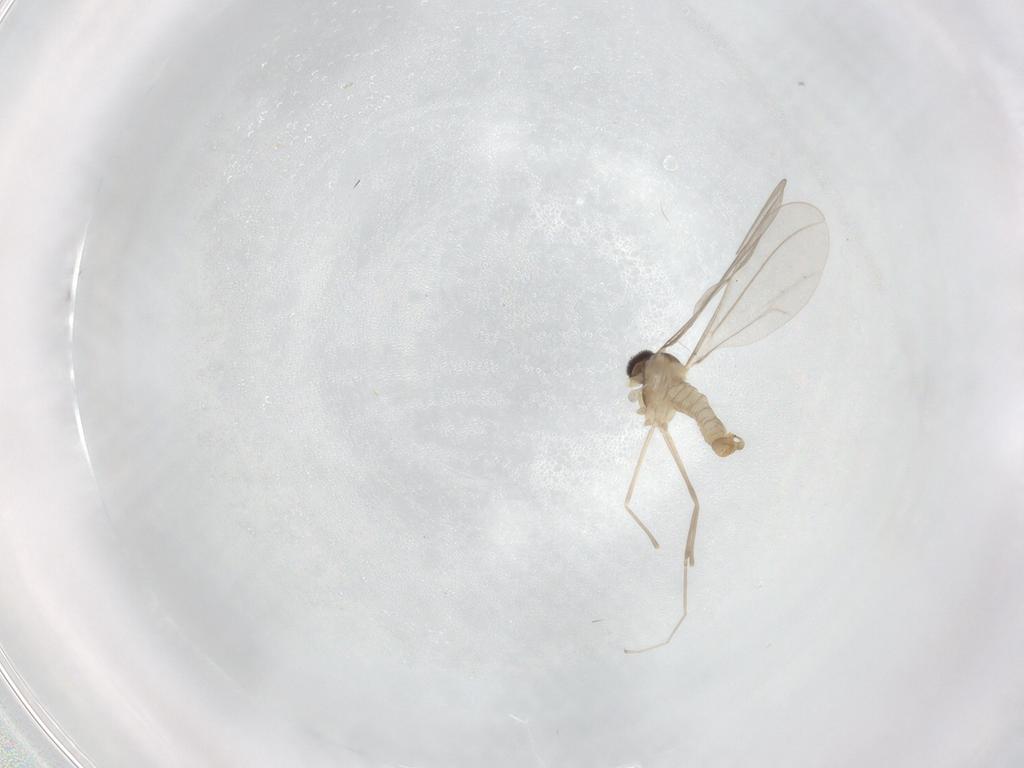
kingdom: Animalia
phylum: Arthropoda
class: Insecta
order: Diptera
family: Cecidomyiidae
